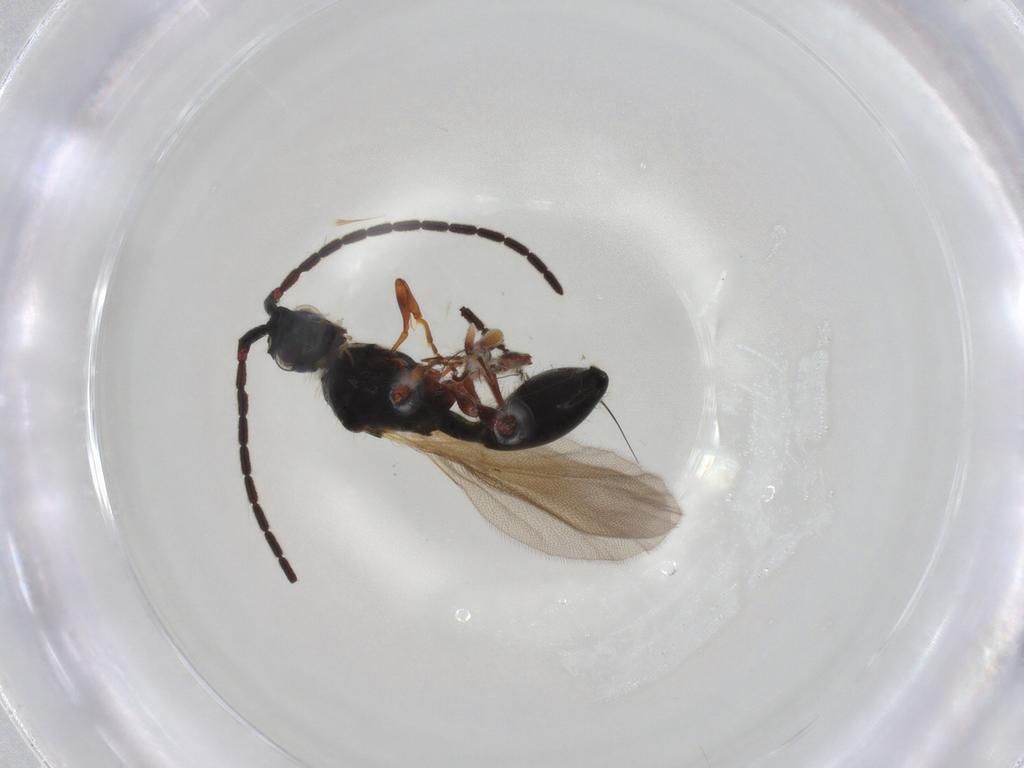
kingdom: Animalia
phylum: Arthropoda
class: Insecta
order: Hymenoptera
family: Diapriidae
